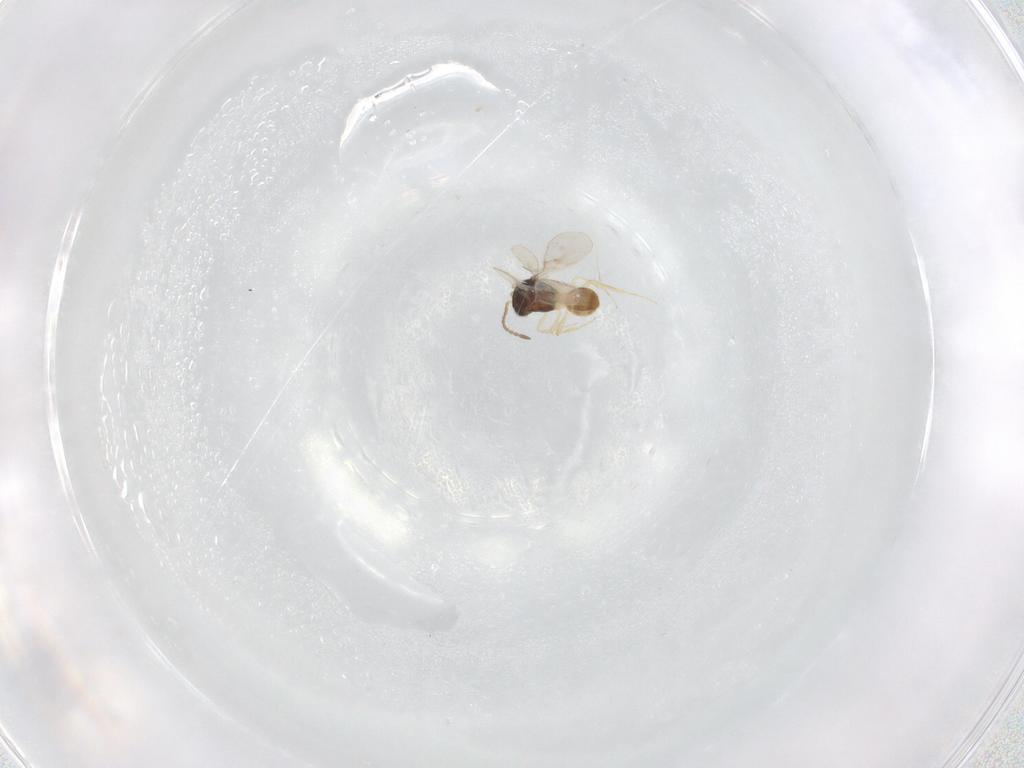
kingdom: Animalia
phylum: Arthropoda
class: Insecta
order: Hymenoptera
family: Scelionidae
